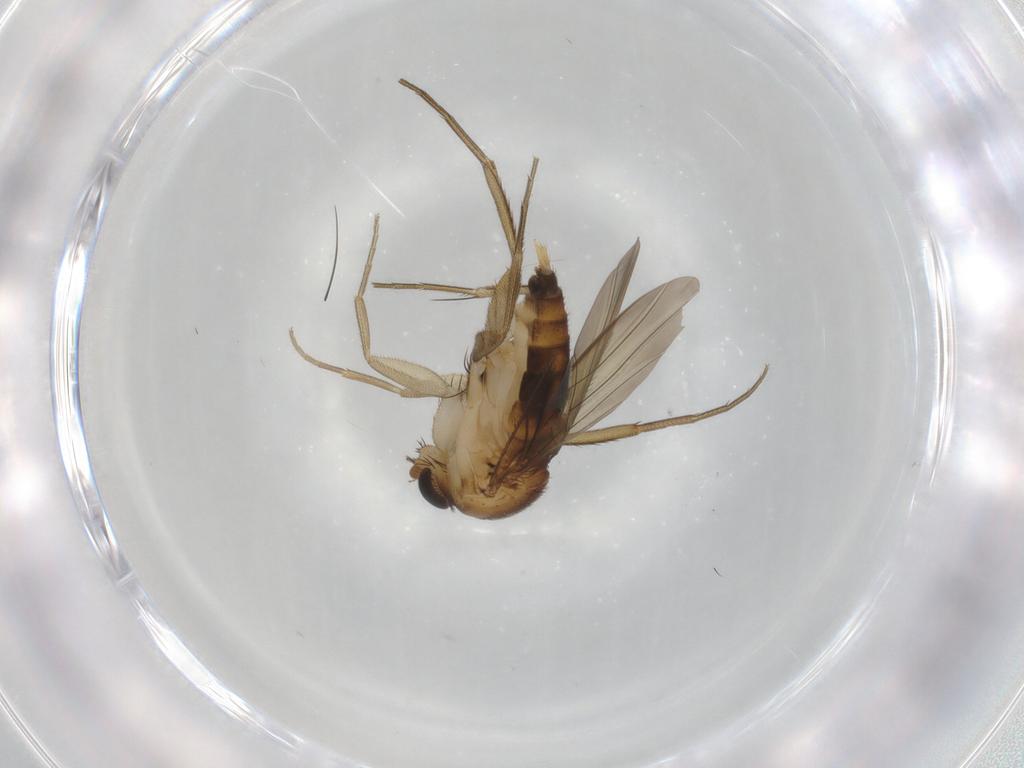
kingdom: Animalia
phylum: Arthropoda
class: Insecta
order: Diptera
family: Phoridae
